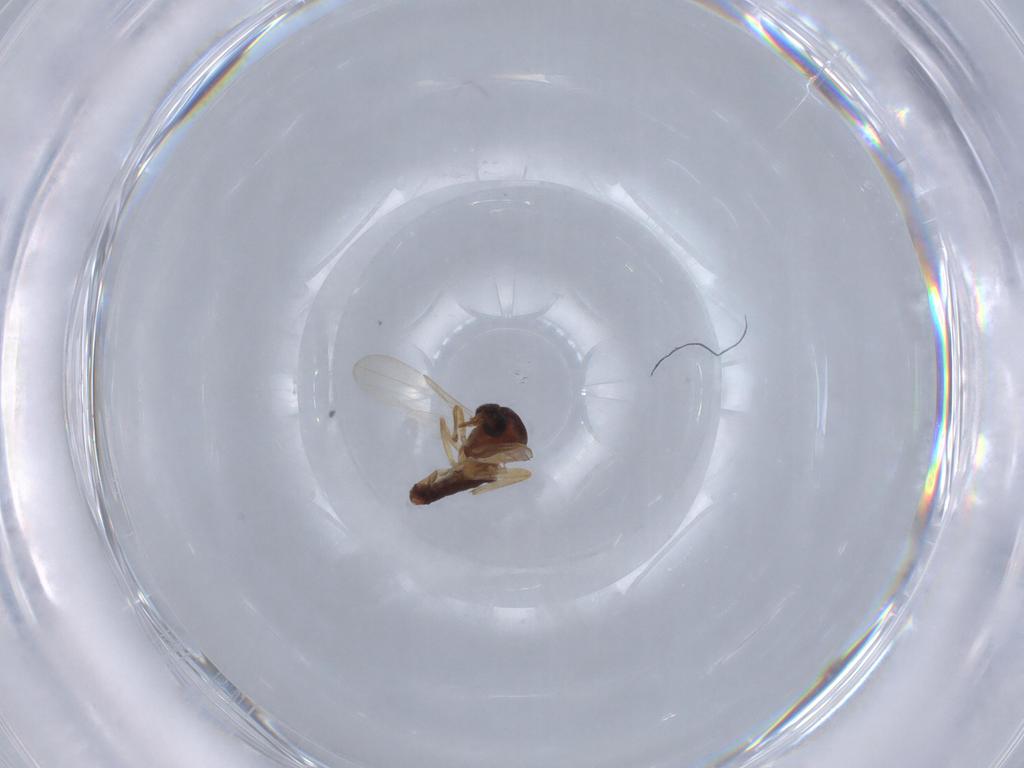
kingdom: Animalia
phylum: Arthropoda
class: Insecta
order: Diptera
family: Ceratopogonidae
